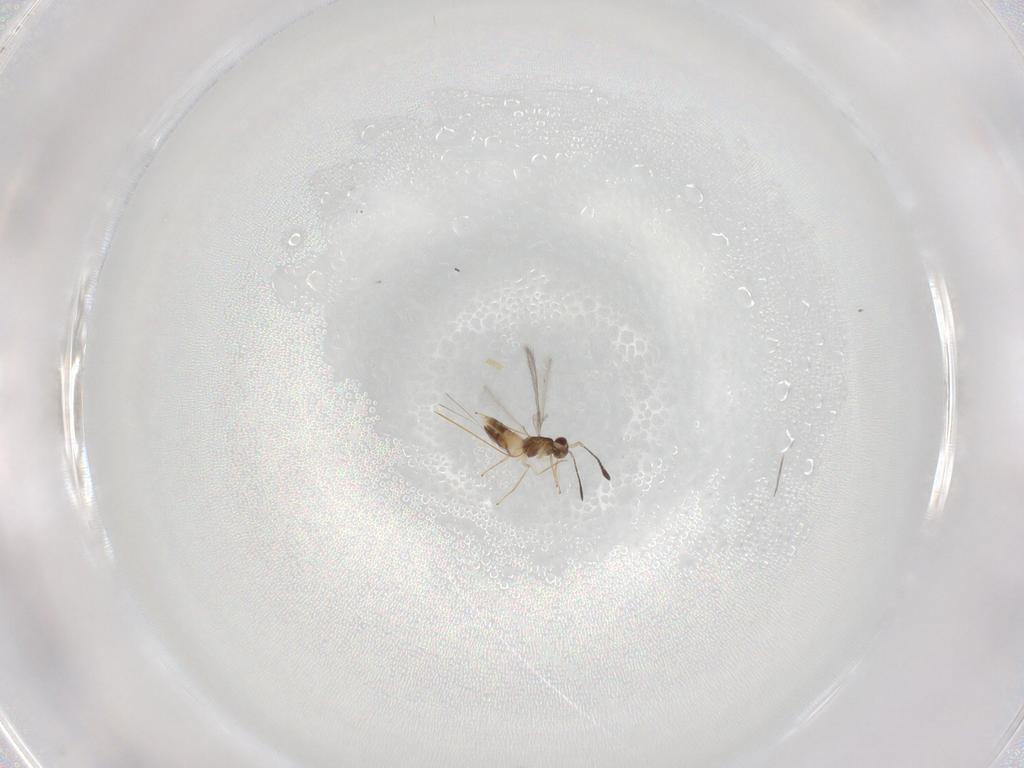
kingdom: Animalia
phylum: Arthropoda
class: Insecta
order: Hymenoptera
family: Mymaridae
